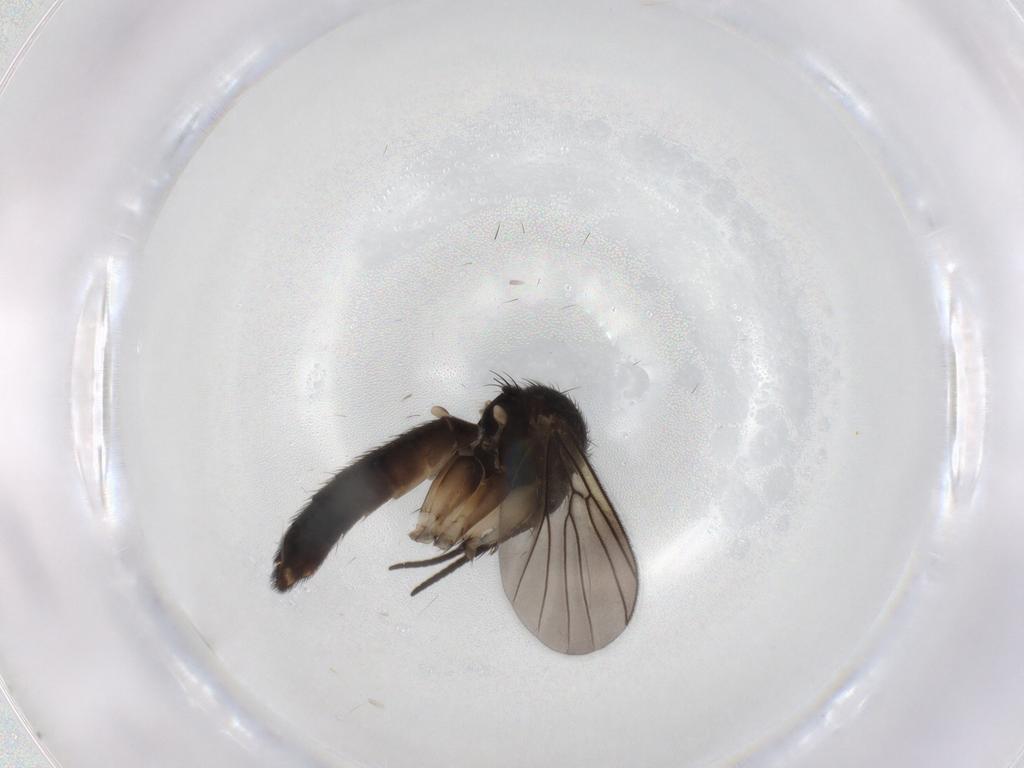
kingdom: Animalia
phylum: Arthropoda
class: Insecta
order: Diptera
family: Mycetophilidae
